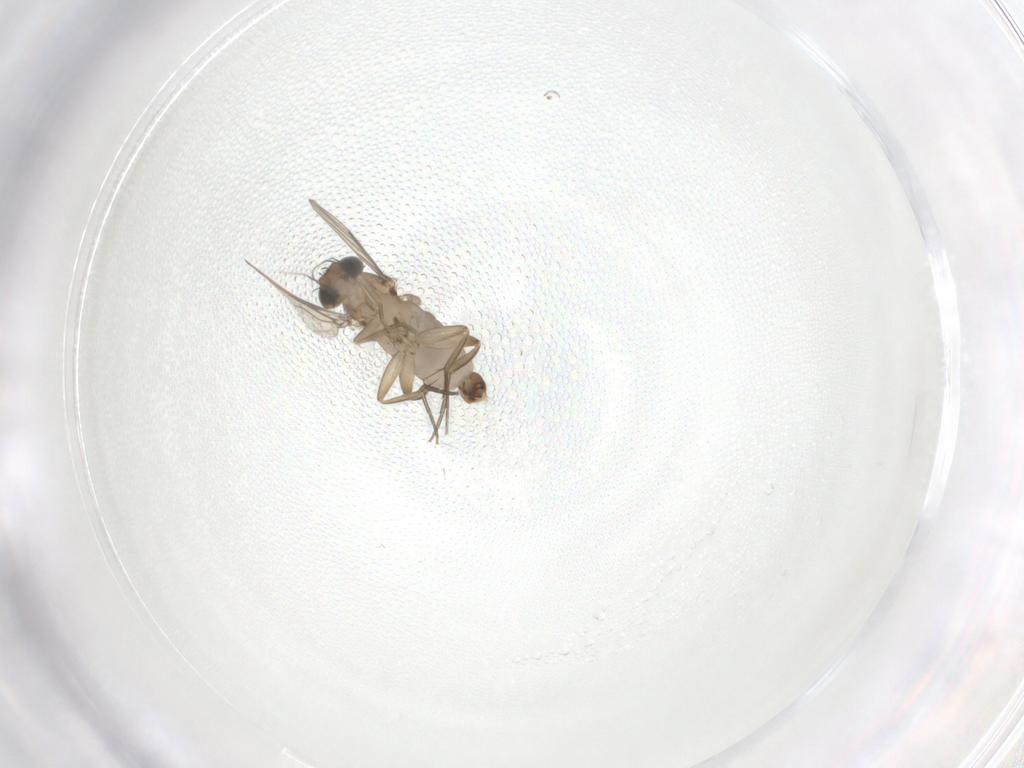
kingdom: Animalia
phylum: Arthropoda
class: Insecta
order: Diptera
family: Phoridae
